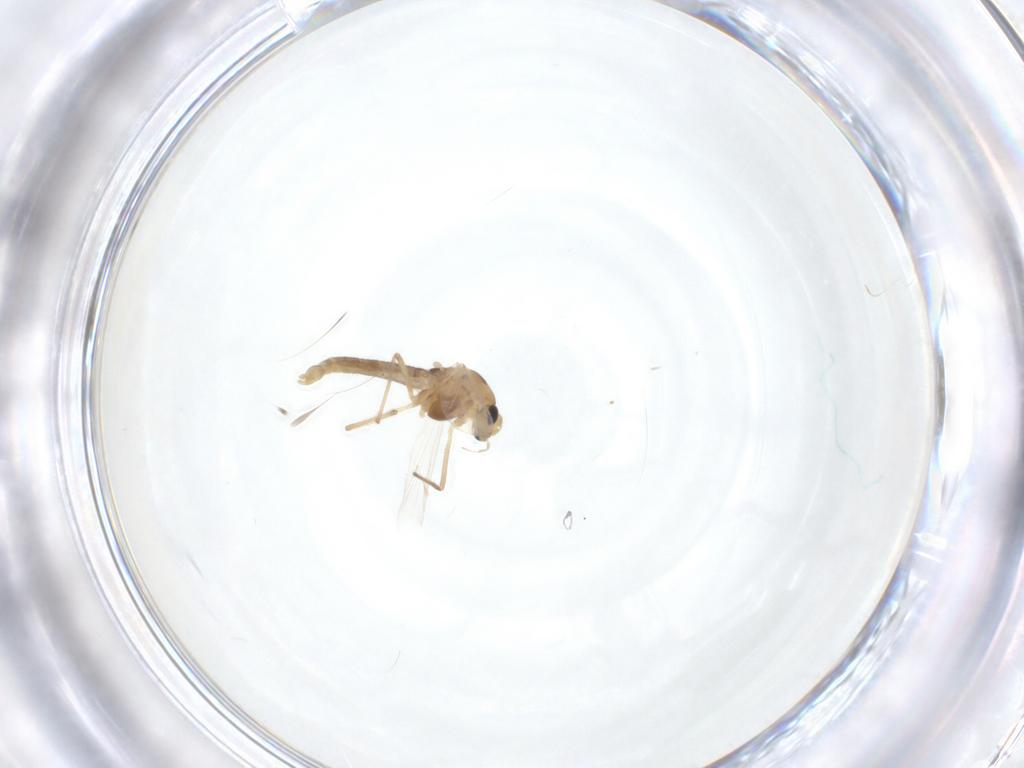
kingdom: Animalia
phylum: Arthropoda
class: Insecta
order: Diptera
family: Chironomidae
